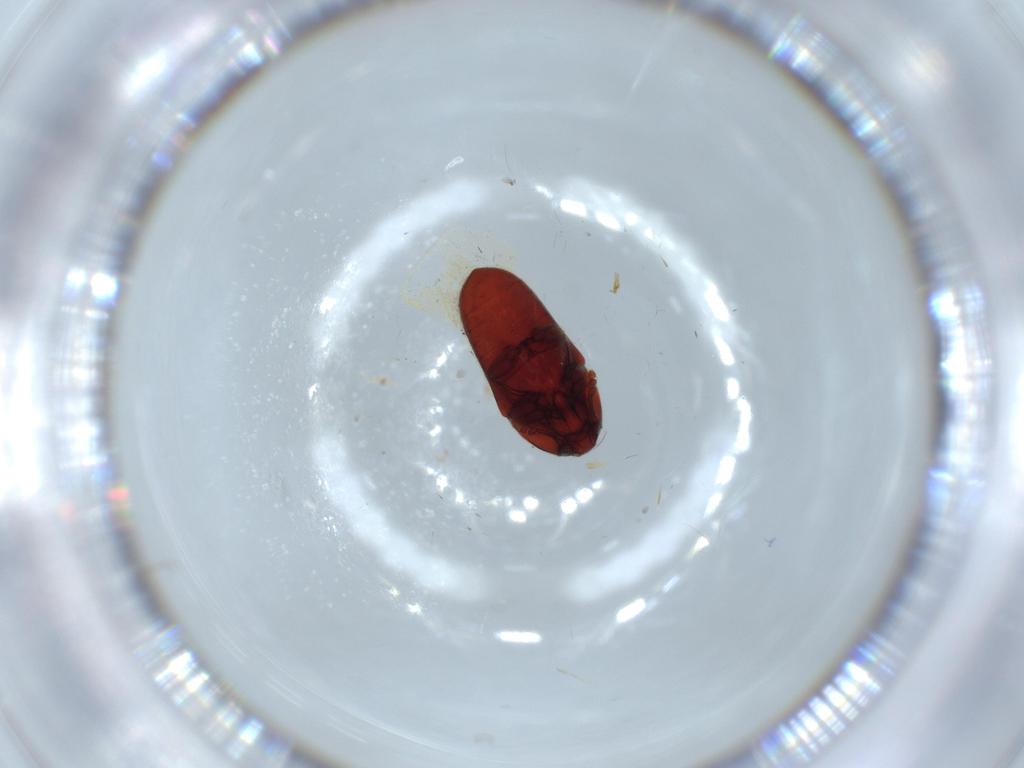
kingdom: Animalia
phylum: Arthropoda
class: Insecta
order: Coleoptera
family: Throscidae
